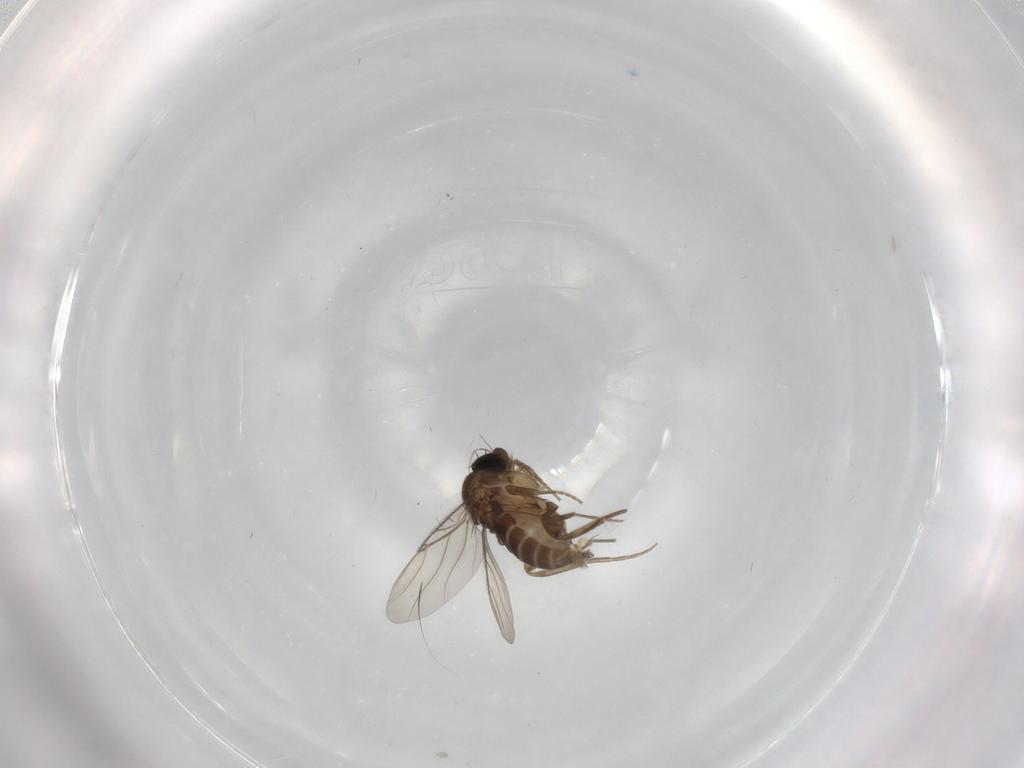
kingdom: Animalia
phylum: Arthropoda
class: Insecta
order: Diptera
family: Phoridae
